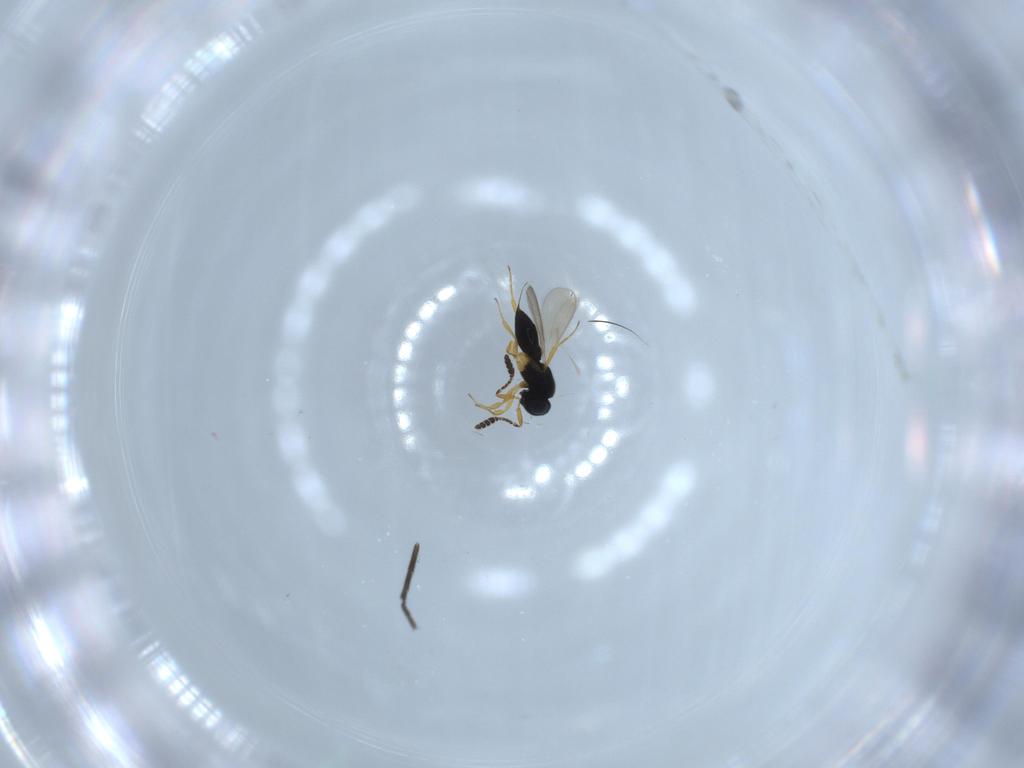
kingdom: Animalia
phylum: Arthropoda
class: Insecta
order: Hymenoptera
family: Scelionidae
